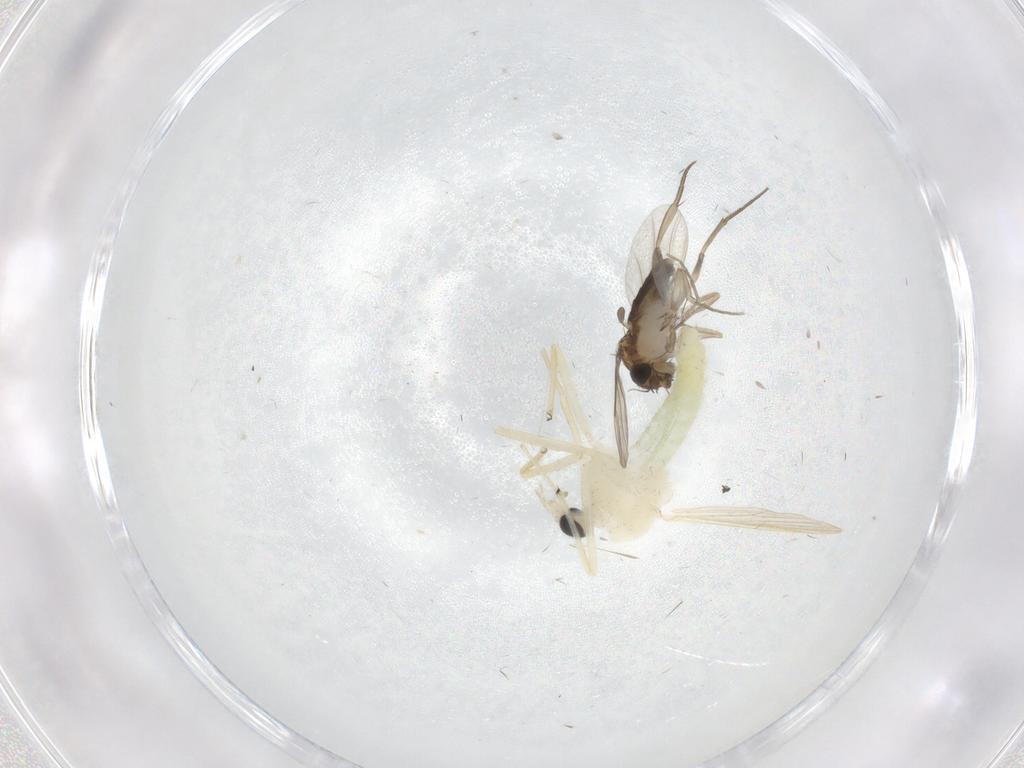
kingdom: Animalia
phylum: Arthropoda
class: Insecta
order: Diptera
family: Chironomidae
